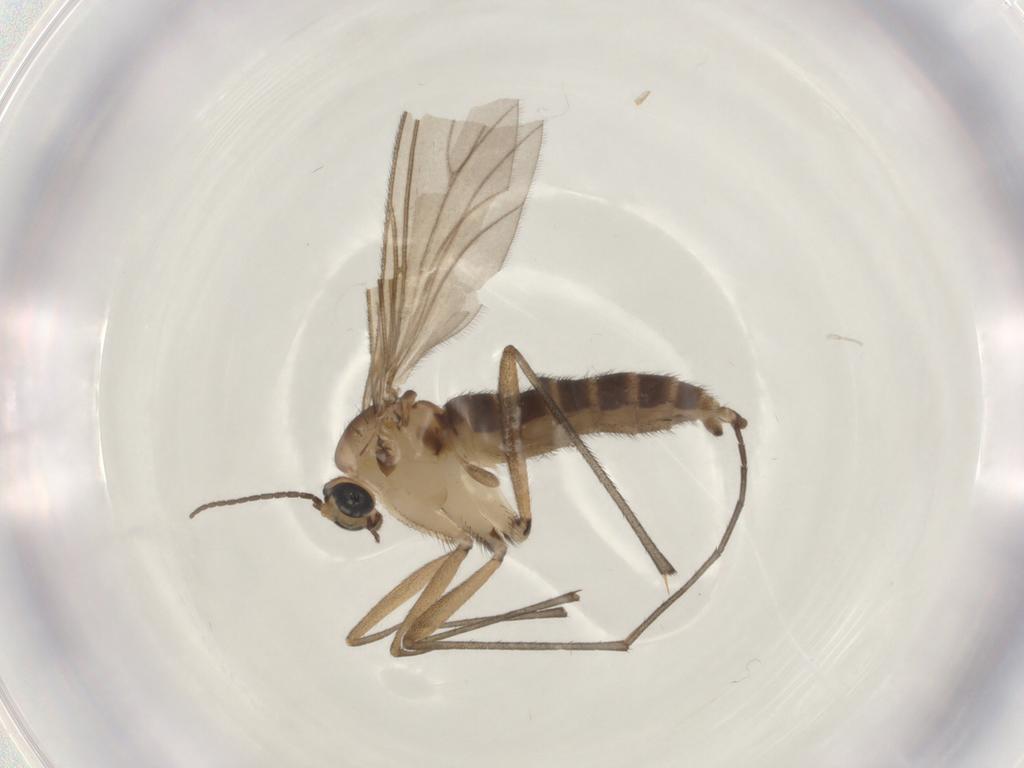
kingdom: Animalia
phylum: Arthropoda
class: Insecta
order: Diptera
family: Sciaridae
